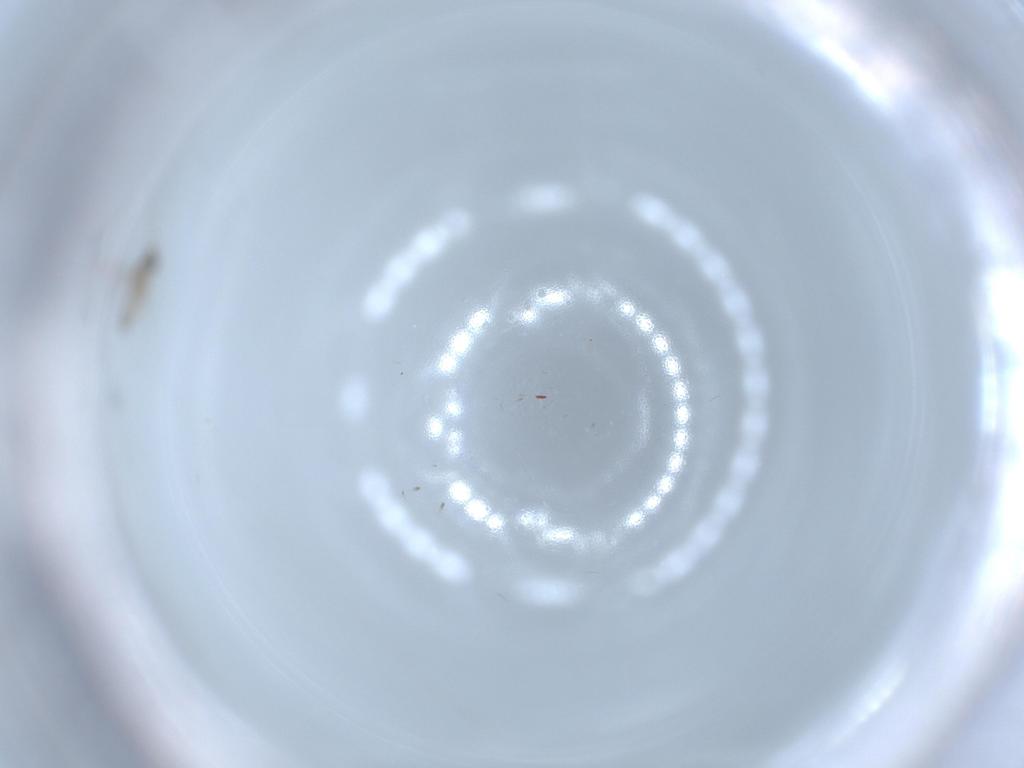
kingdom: Animalia
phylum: Arthropoda
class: Insecta
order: Diptera
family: Cecidomyiidae
